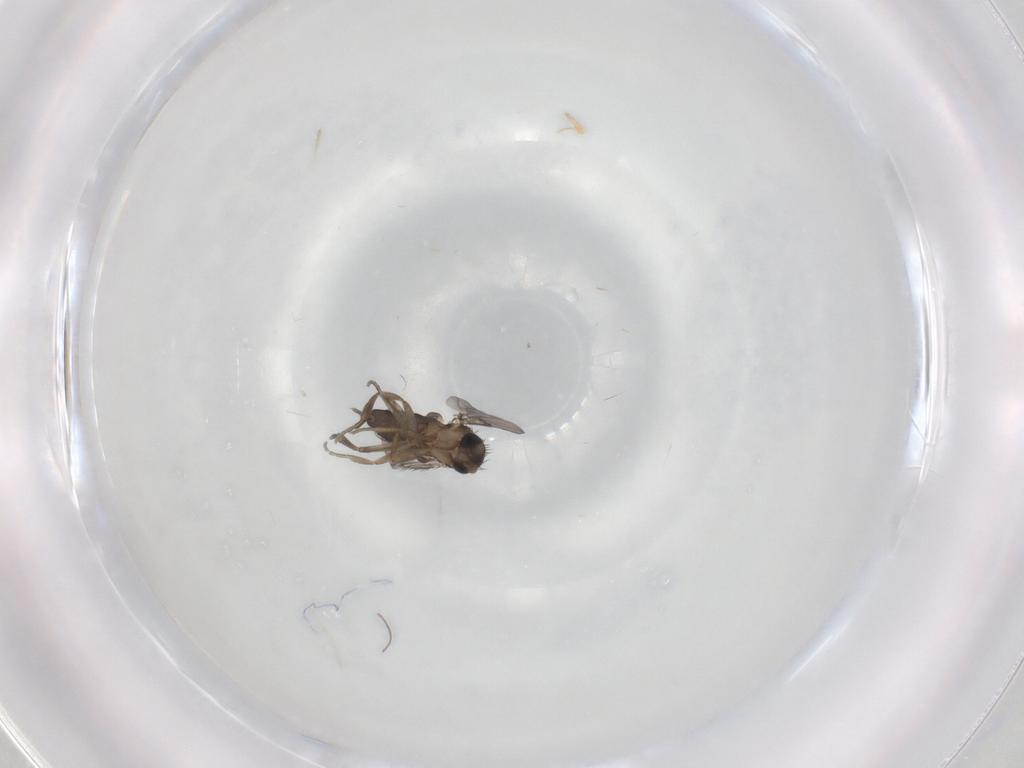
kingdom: Animalia
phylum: Arthropoda
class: Insecta
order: Diptera
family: Phoridae
